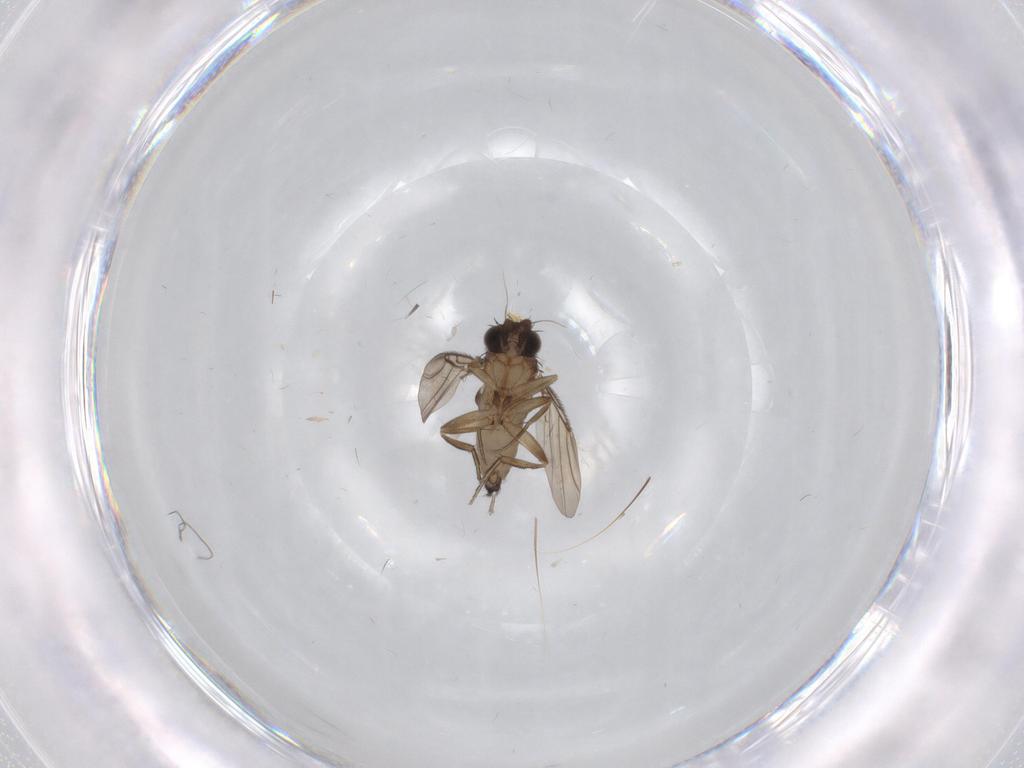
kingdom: Animalia
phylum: Arthropoda
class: Insecta
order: Diptera
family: Phoridae
